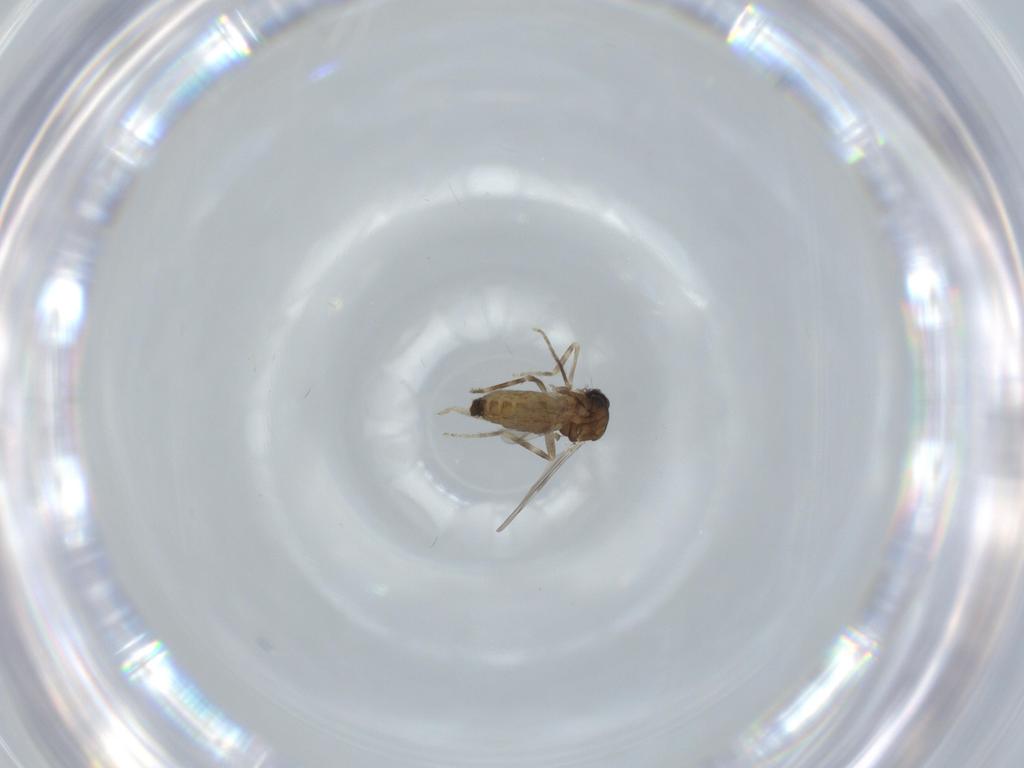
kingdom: Animalia
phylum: Arthropoda
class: Insecta
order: Diptera
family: Ceratopogonidae
